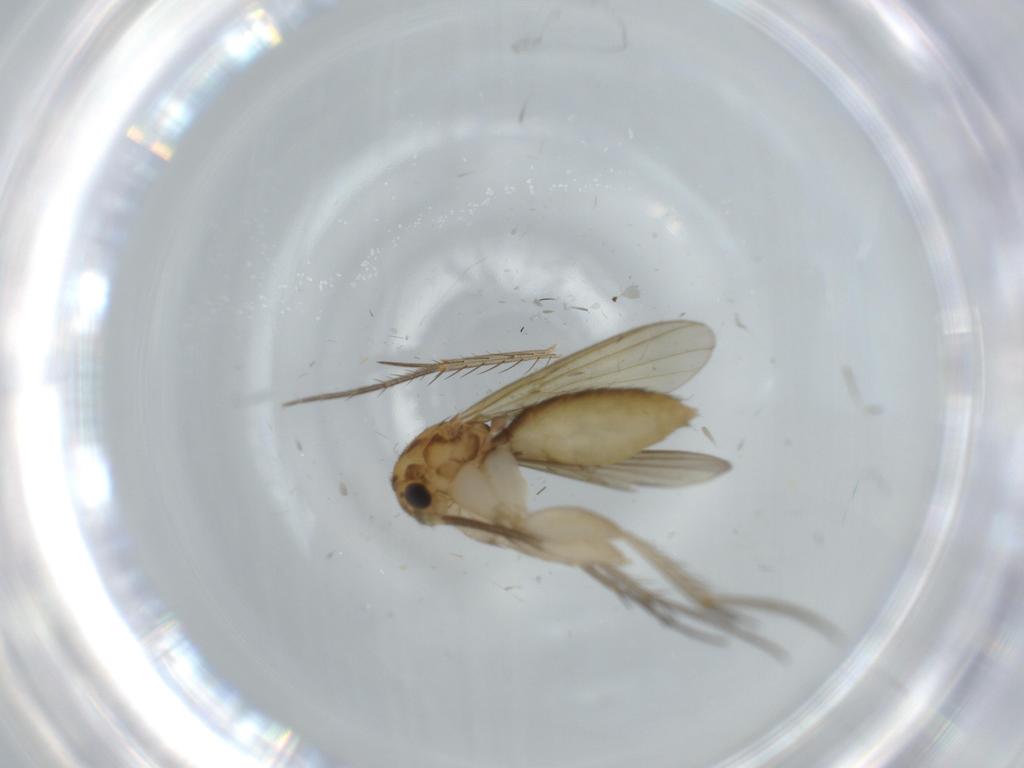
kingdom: Animalia
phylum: Arthropoda
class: Insecta
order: Diptera
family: Mycetophilidae
